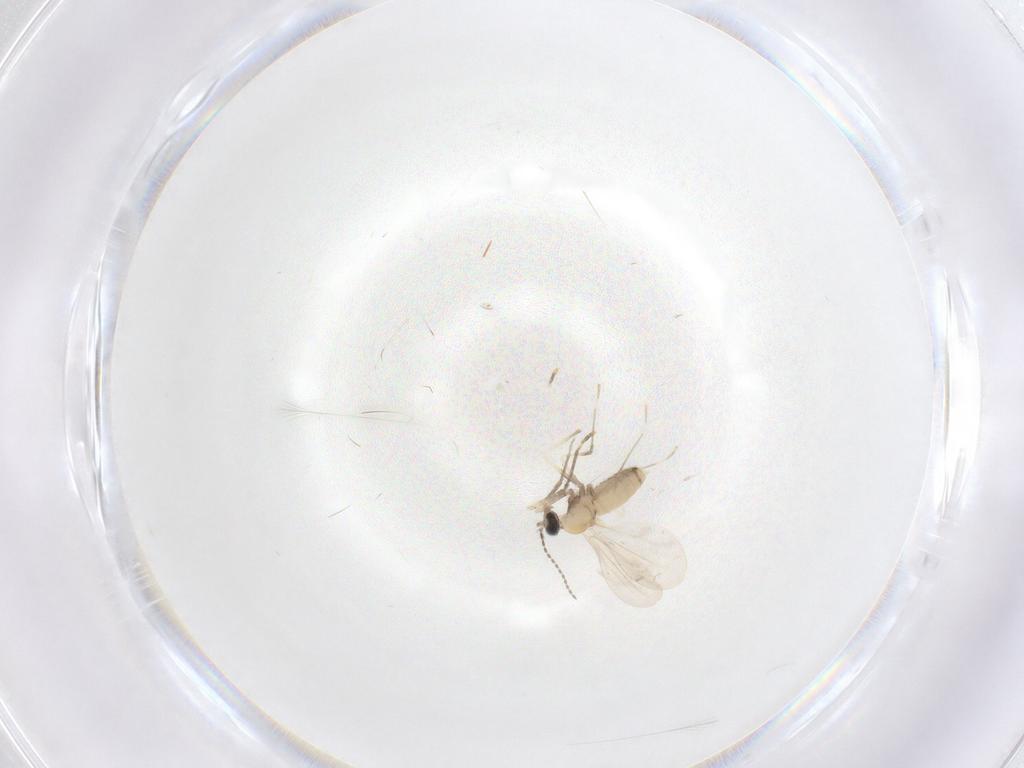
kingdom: Animalia
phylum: Arthropoda
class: Insecta
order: Diptera
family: Cecidomyiidae
